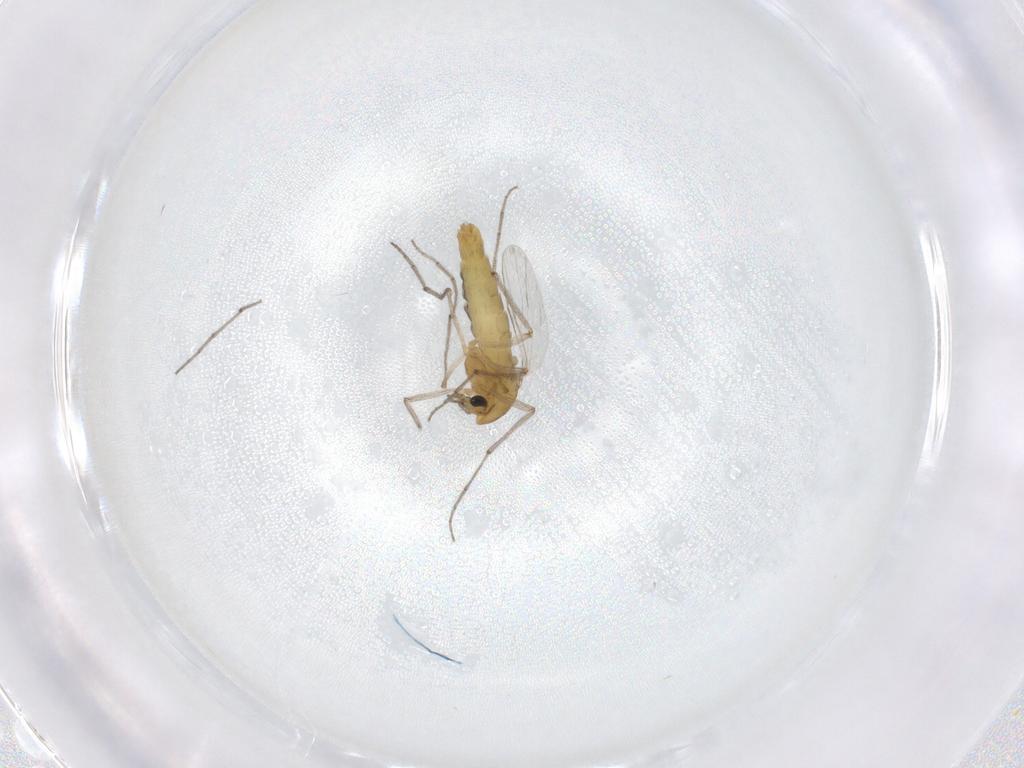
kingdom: Animalia
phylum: Arthropoda
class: Insecta
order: Diptera
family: Chironomidae
